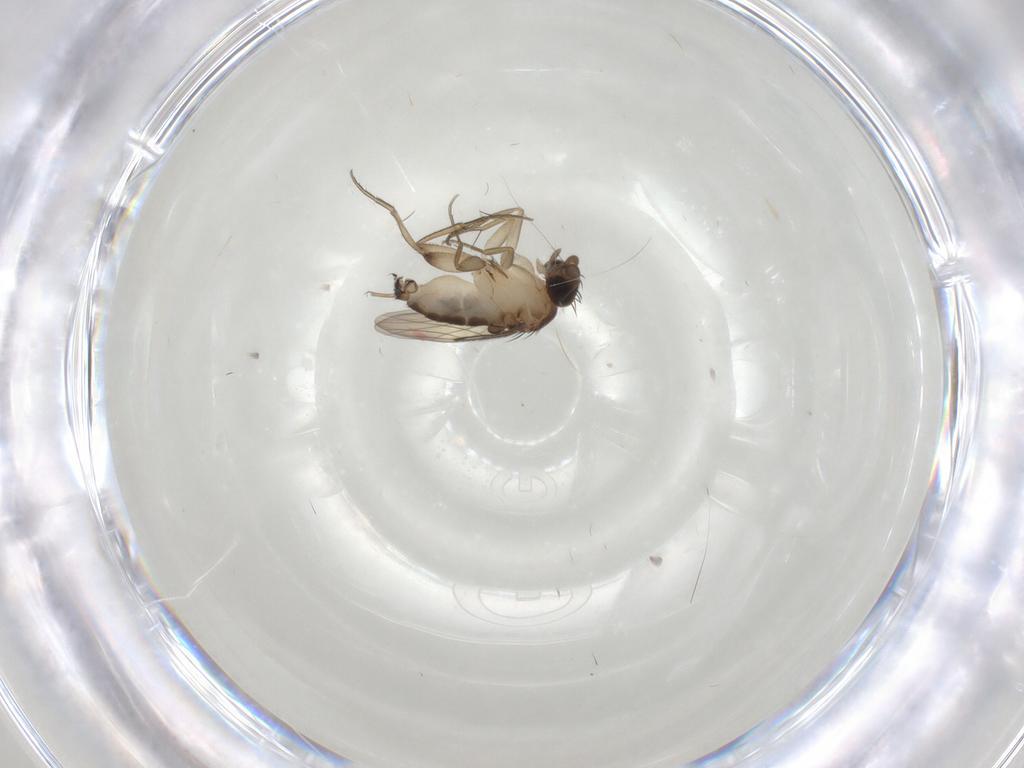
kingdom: Animalia
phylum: Arthropoda
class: Insecta
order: Diptera
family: Phoridae
